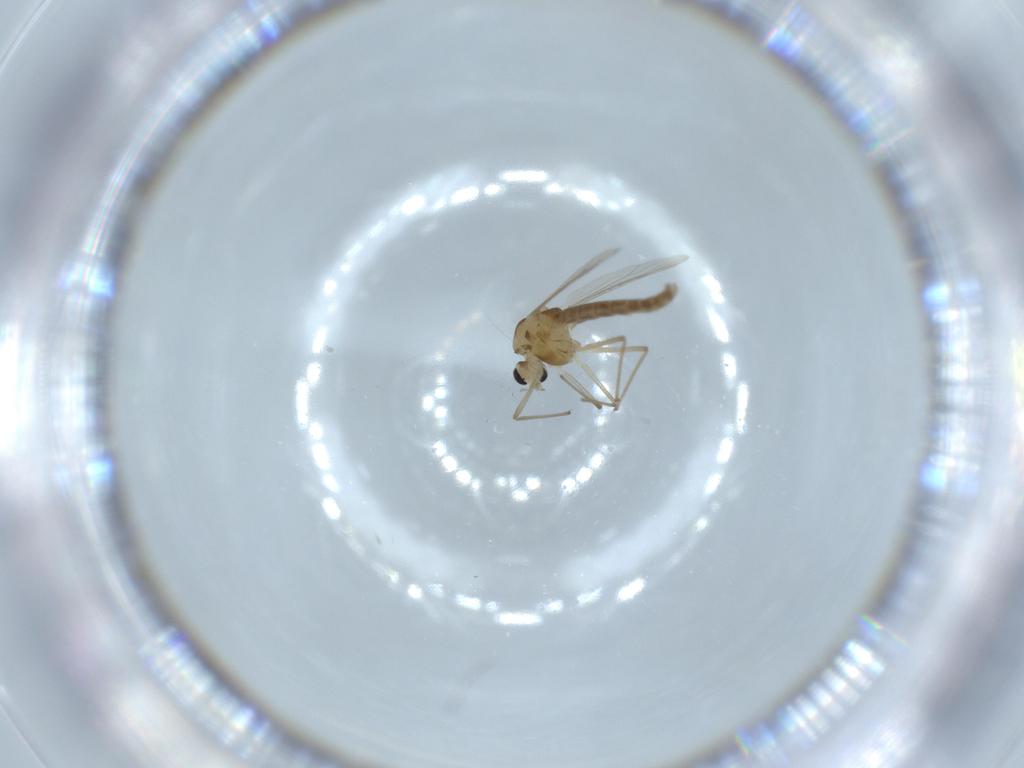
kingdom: Animalia
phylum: Arthropoda
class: Insecta
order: Diptera
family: Chironomidae
